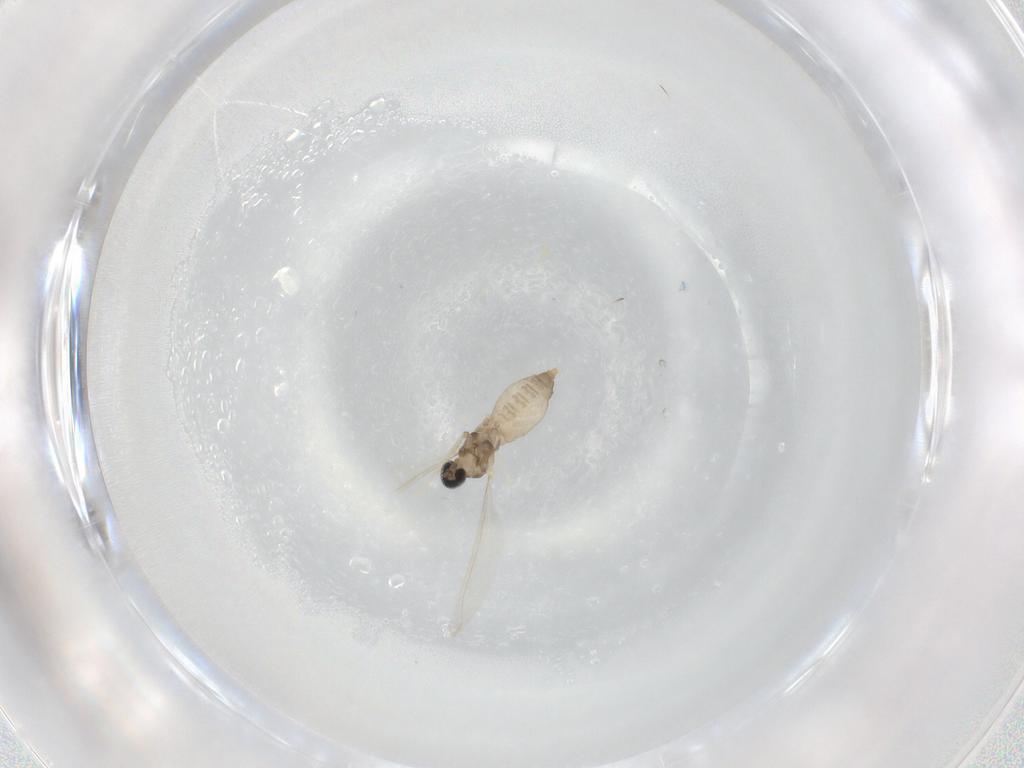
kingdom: Animalia
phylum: Arthropoda
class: Insecta
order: Diptera
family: Cecidomyiidae
